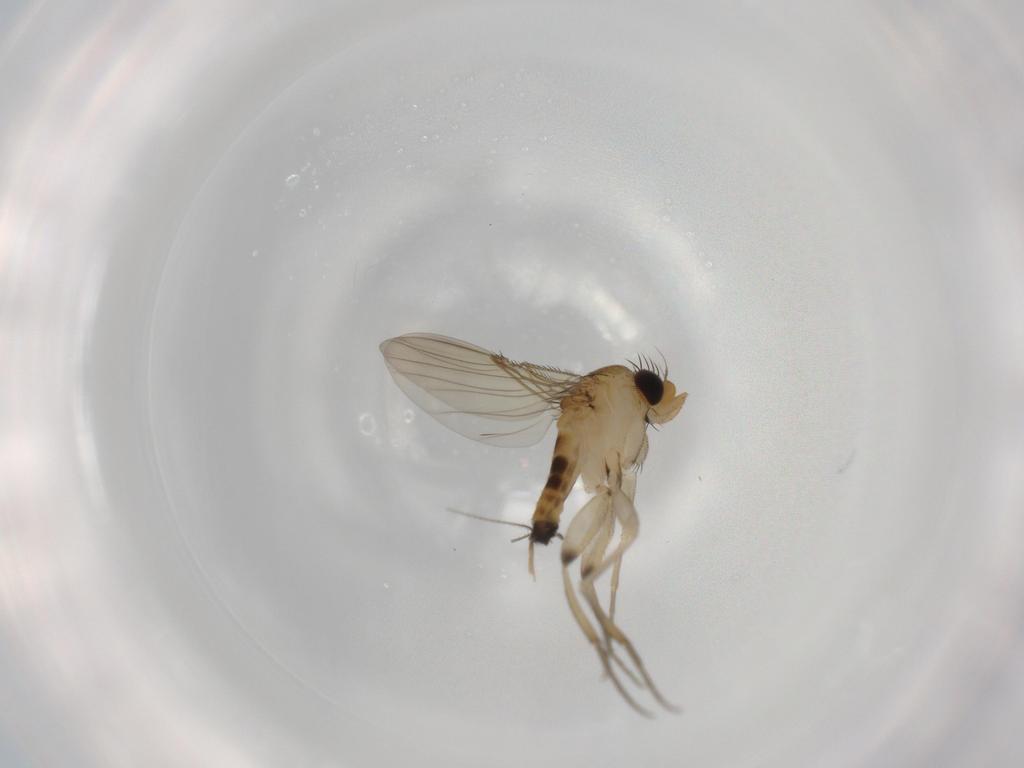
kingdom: Animalia
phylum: Arthropoda
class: Insecta
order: Diptera
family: Phoridae
